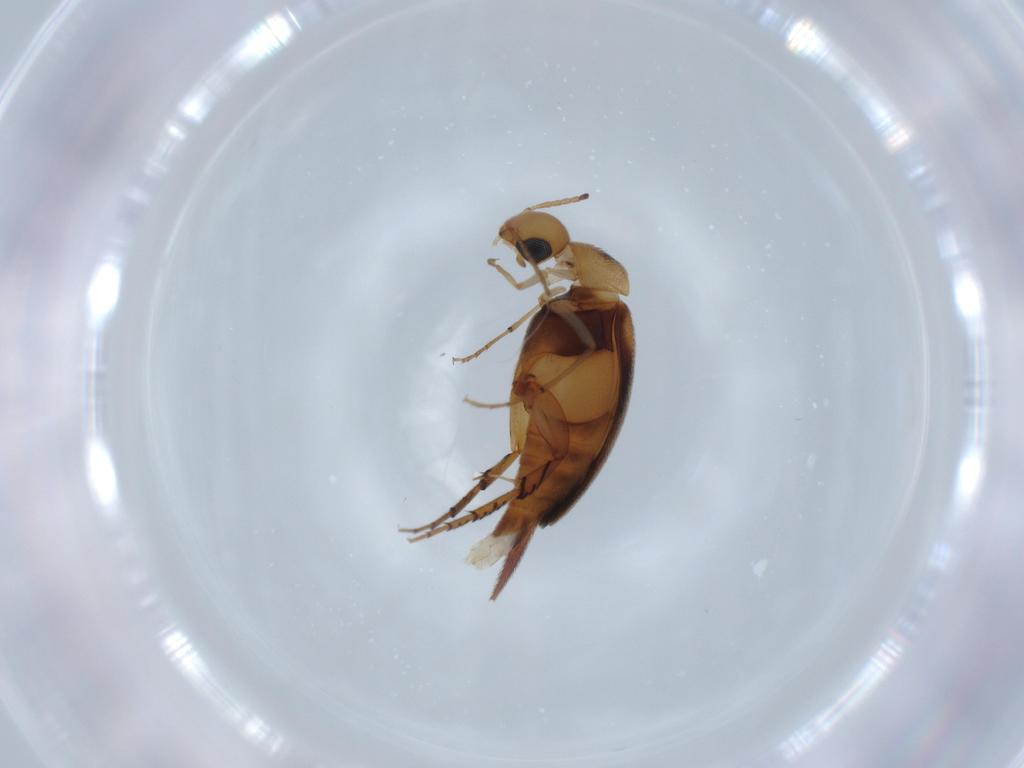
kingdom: Animalia
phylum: Arthropoda
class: Insecta
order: Coleoptera
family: Mordellidae
